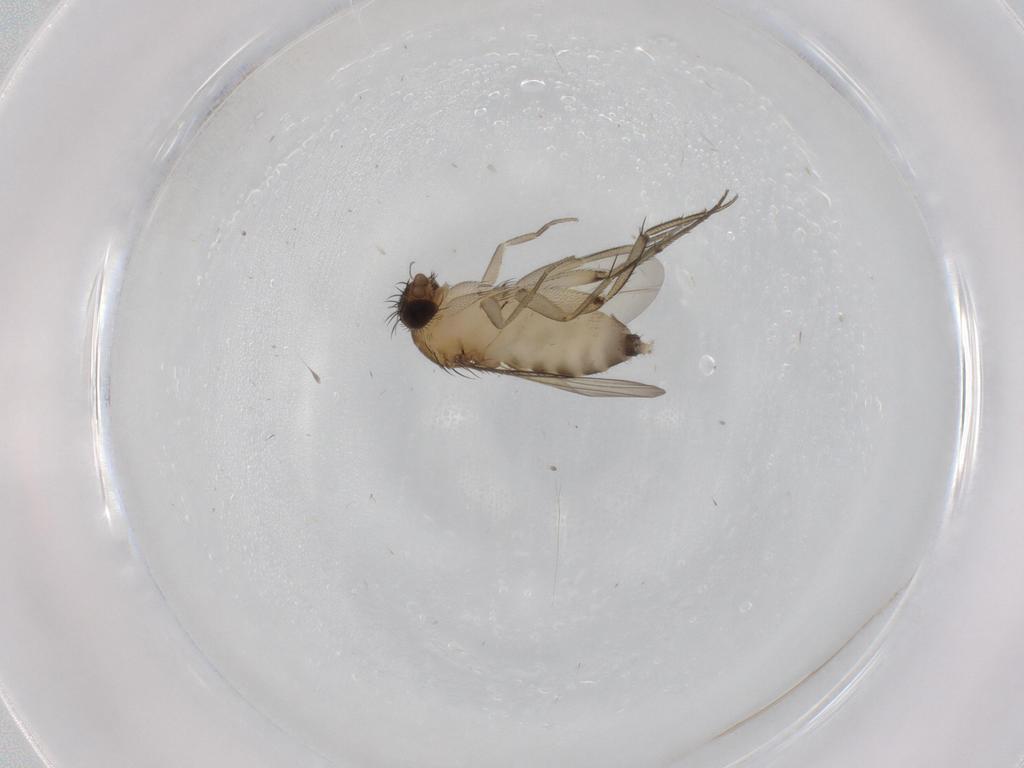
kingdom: Animalia
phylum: Arthropoda
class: Insecta
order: Diptera
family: Phoridae
